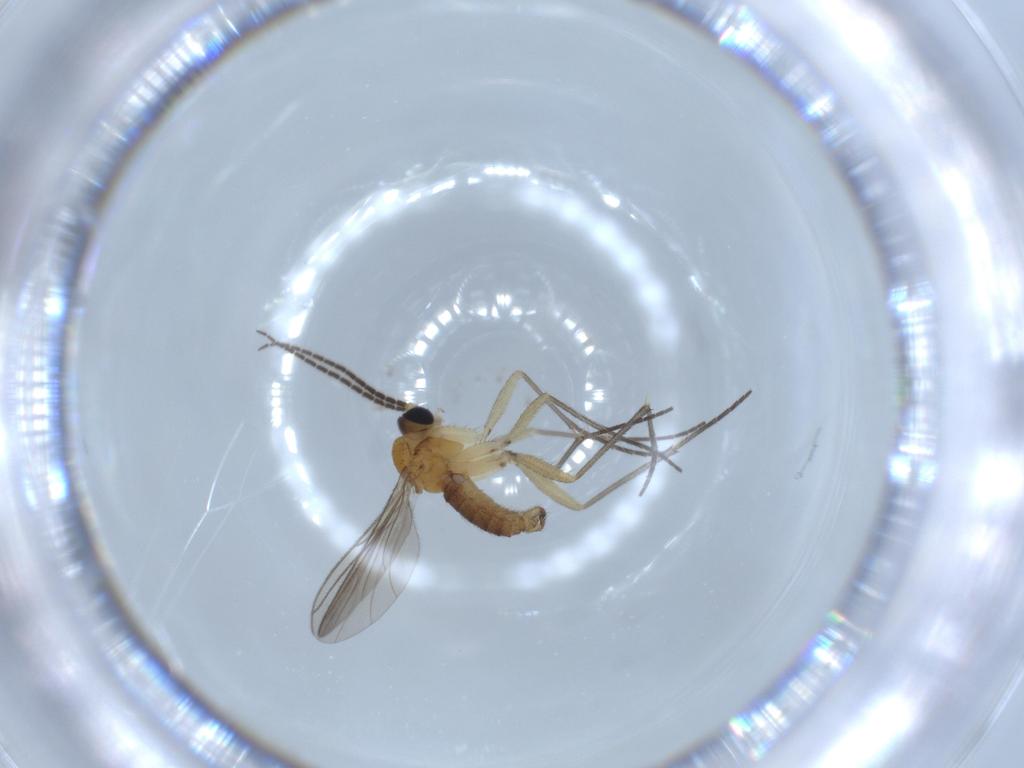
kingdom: Animalia
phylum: Arthropoda
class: Insecta
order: Diptera
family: Sciaridae
